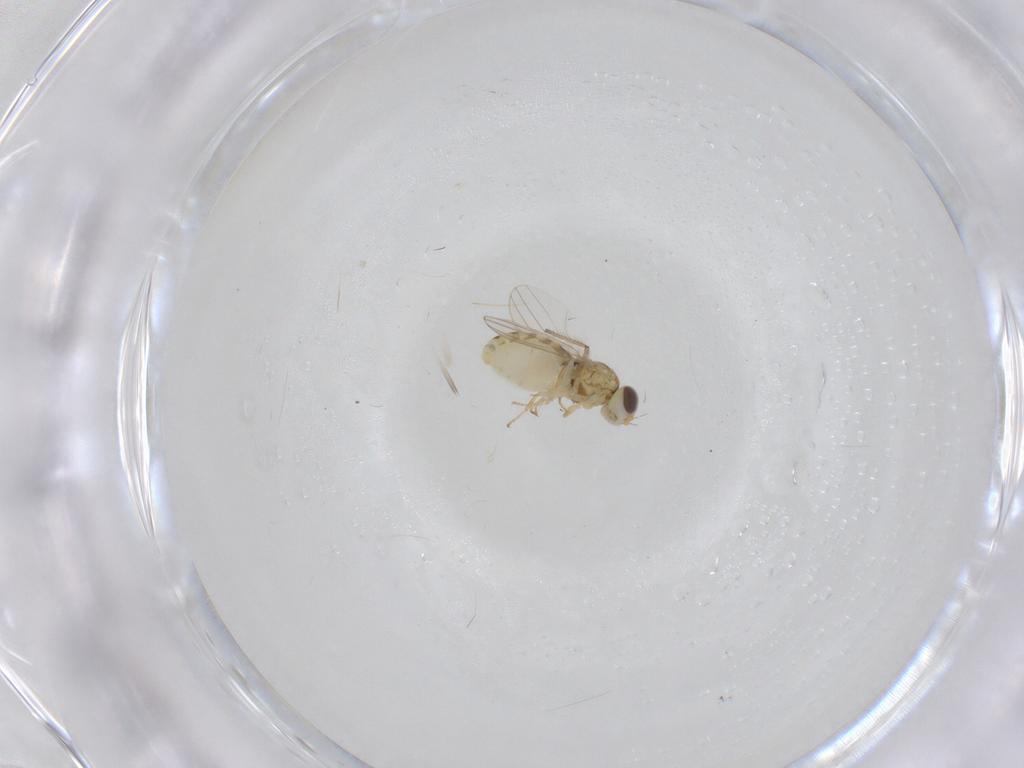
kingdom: Animalia
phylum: Arthropoda
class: Insecta
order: Diptera
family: Chyromyidae
